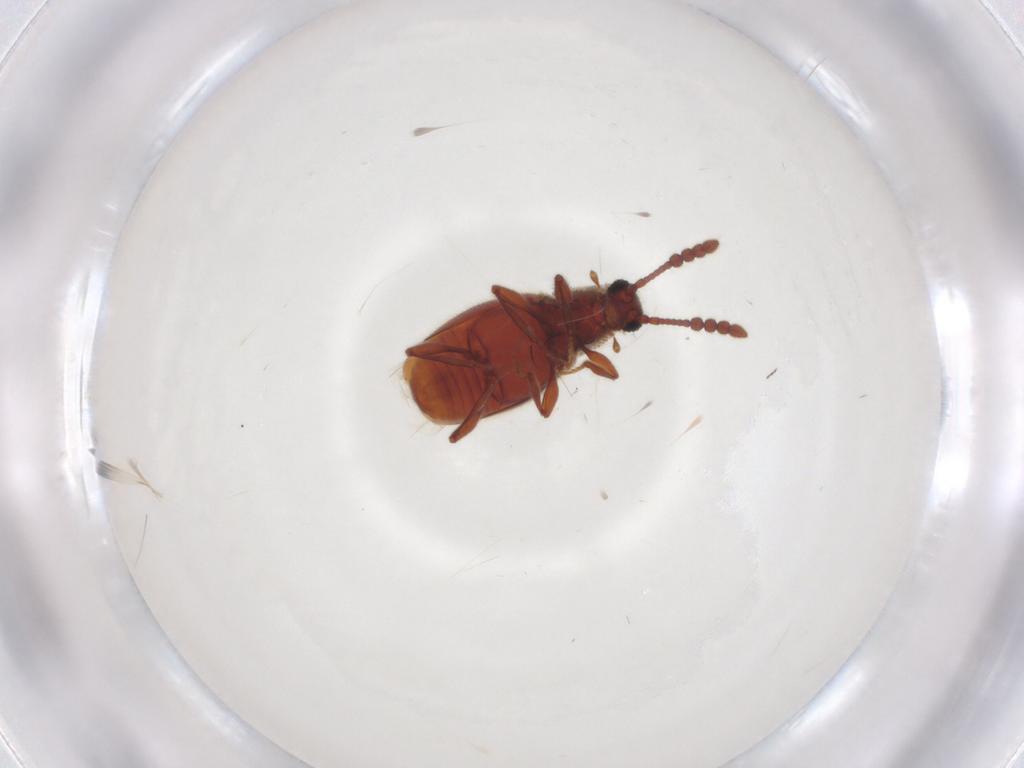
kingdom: Animalia
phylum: Arthropoda
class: Insecta
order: Coleoptera
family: Staphylinidae
